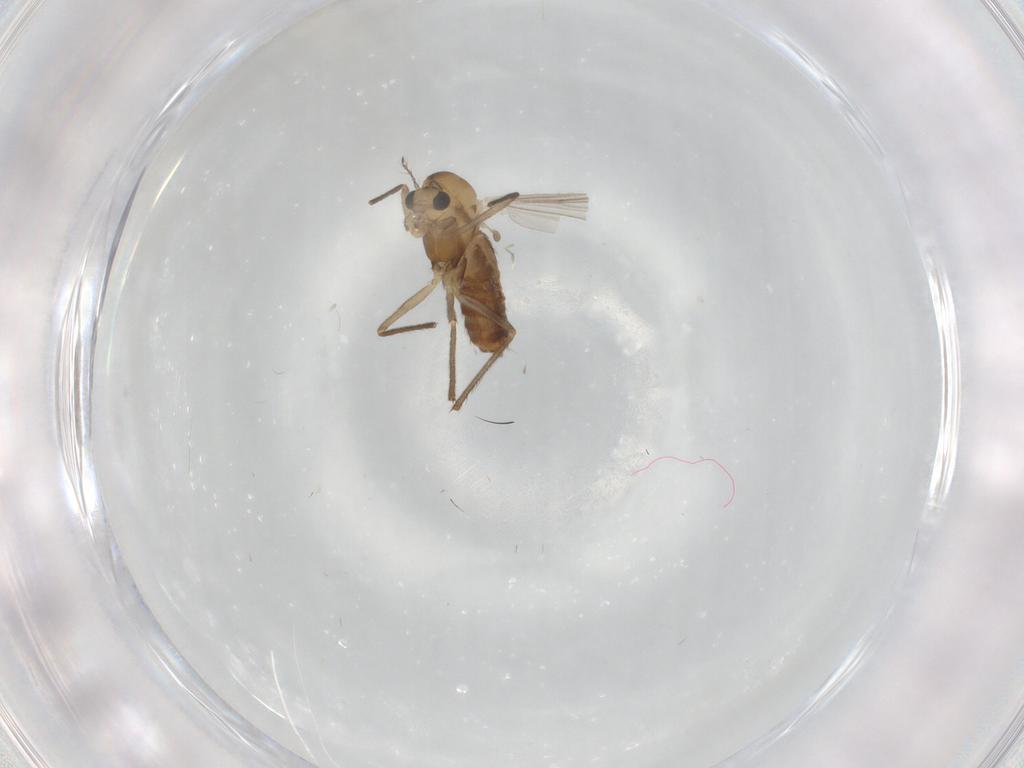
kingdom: Animalia
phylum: Arthropoda
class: Insecta
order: Diptera
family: Chironomidae
